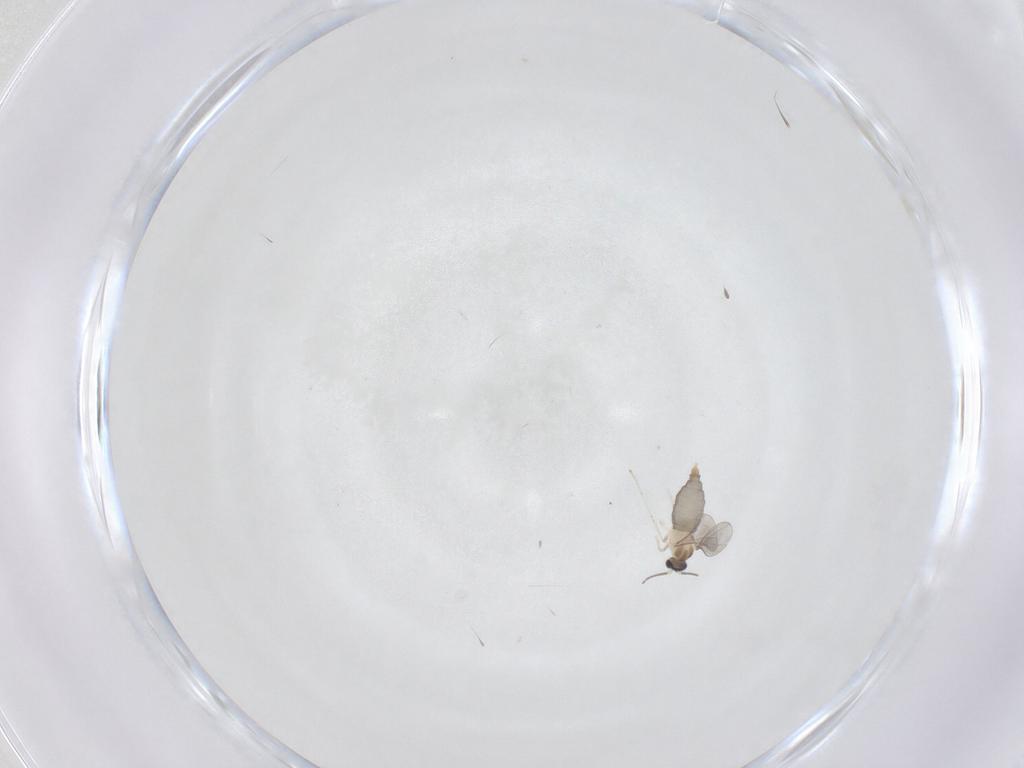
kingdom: Animalia
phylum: Arthropoda
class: Insecta
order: Diptera
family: Cecidomyiidae
